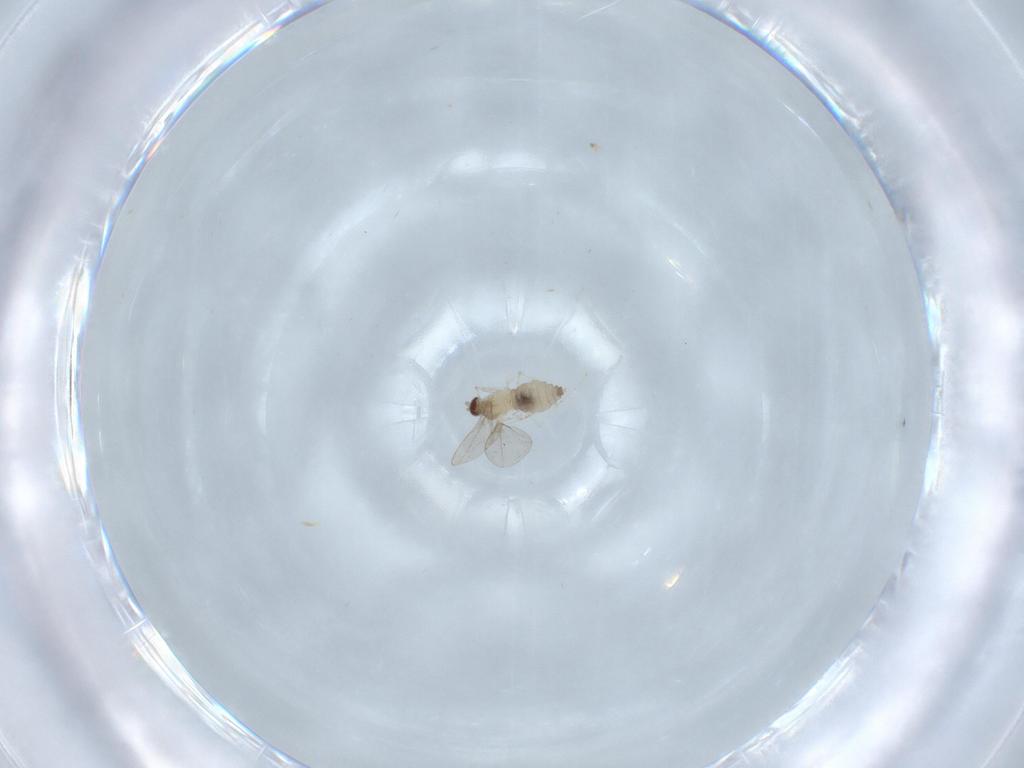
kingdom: Animalia
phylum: Arthropoda
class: Insecta
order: Diptera
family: Cecidomyiidae
